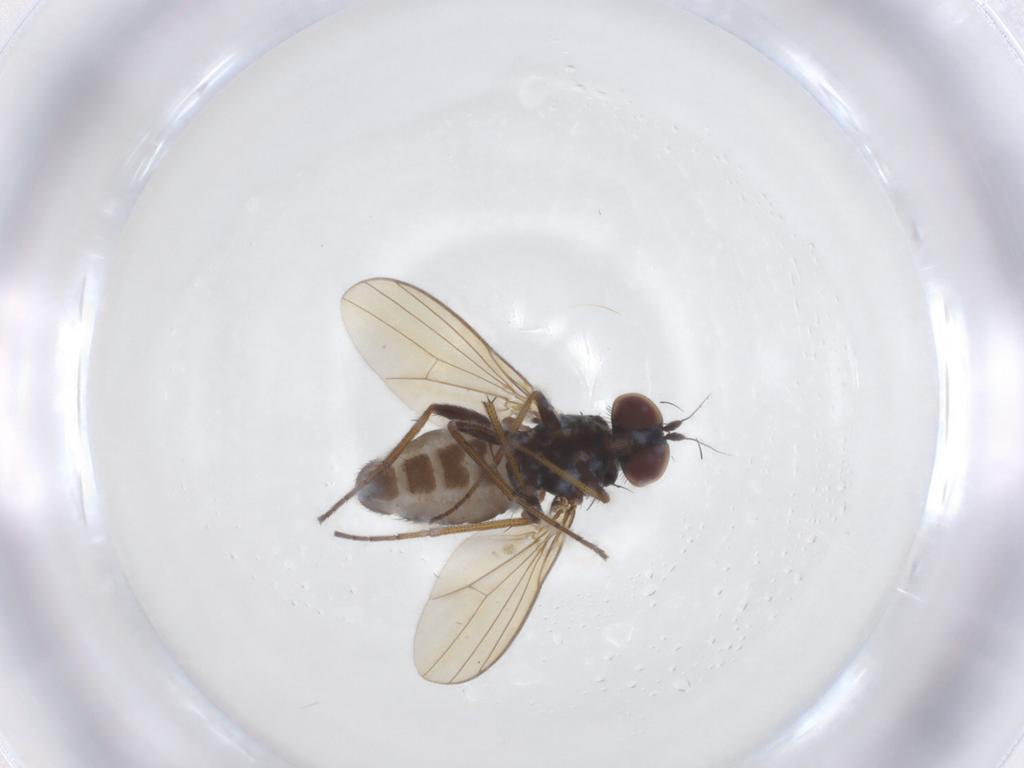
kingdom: Animalia
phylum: Arthropoda
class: Insecta
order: Diptera
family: Dolichopodidae
